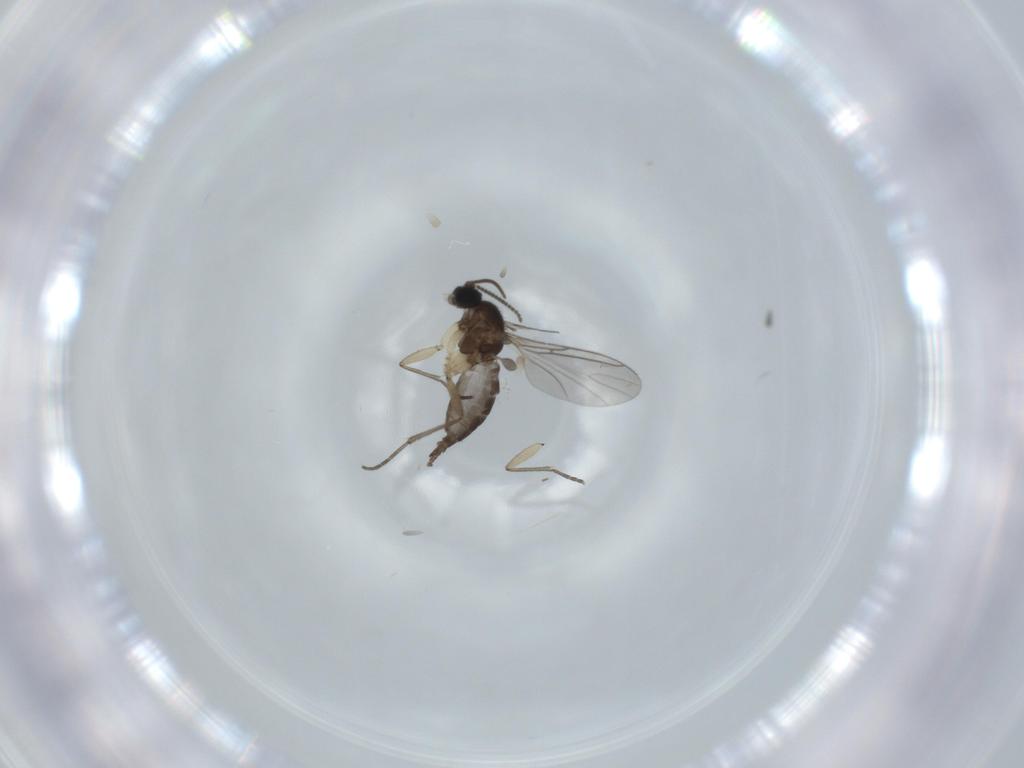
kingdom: Animalia
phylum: Arthropoda
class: Insecta
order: Diptera
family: Sciaridae
